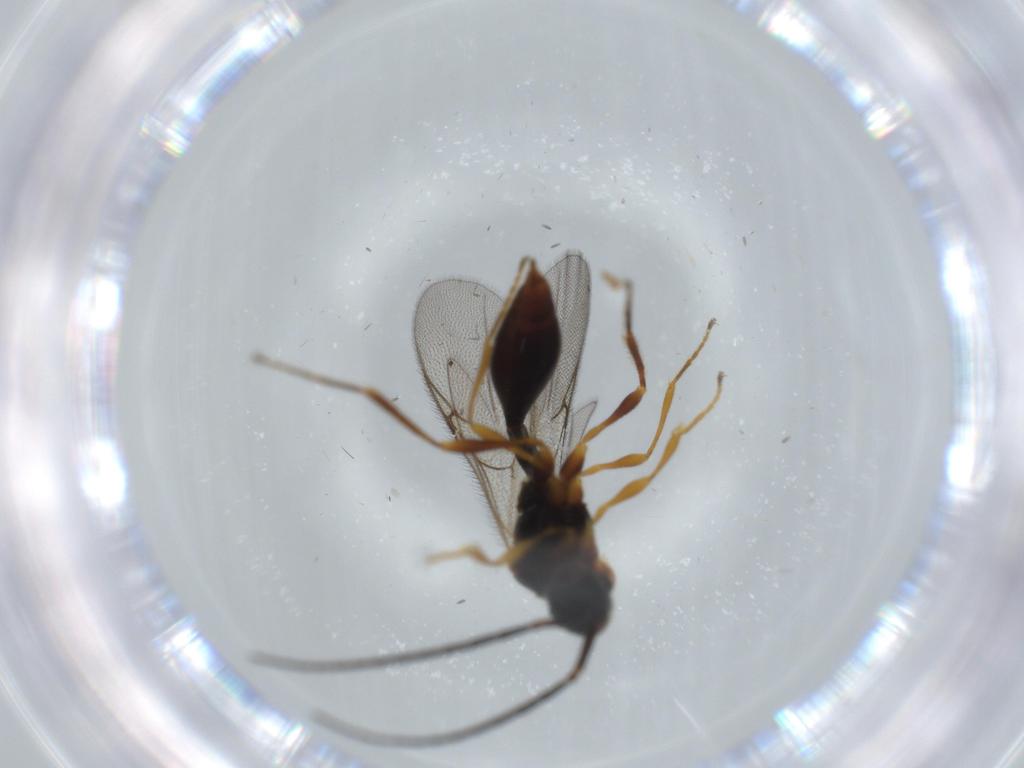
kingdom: Animalia
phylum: Arthropoda
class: Insecta
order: Hymenoptera
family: Diapriidae
